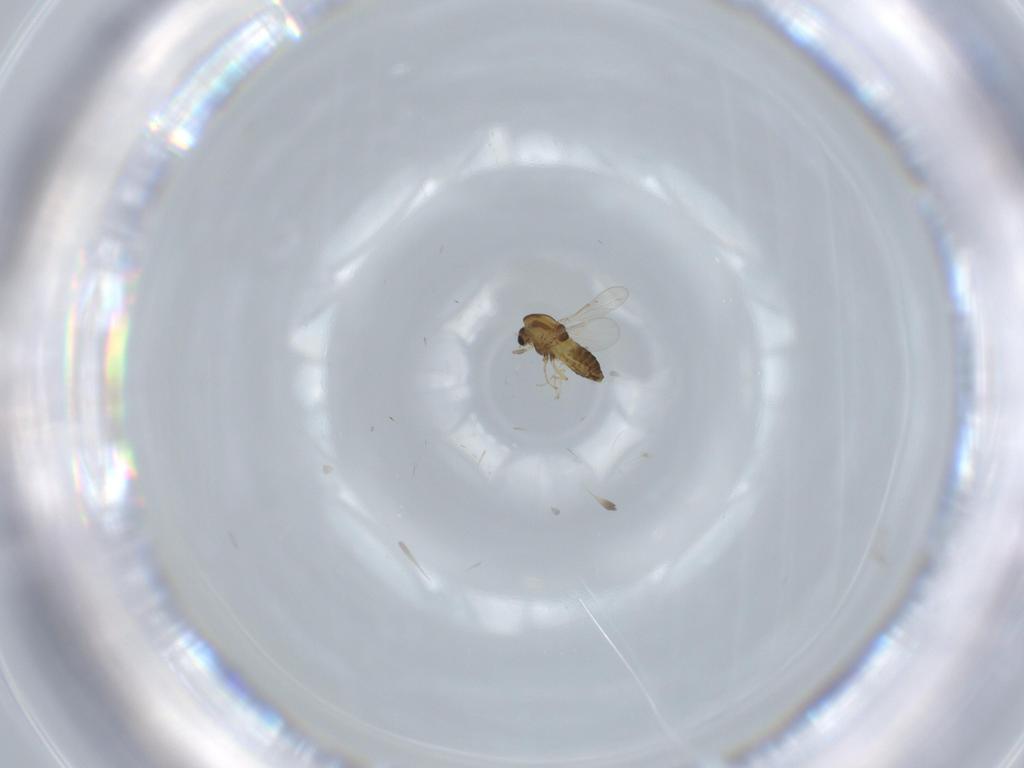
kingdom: Animalia
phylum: Arthropoda
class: Insecta
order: Diptera
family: Chironomidae
